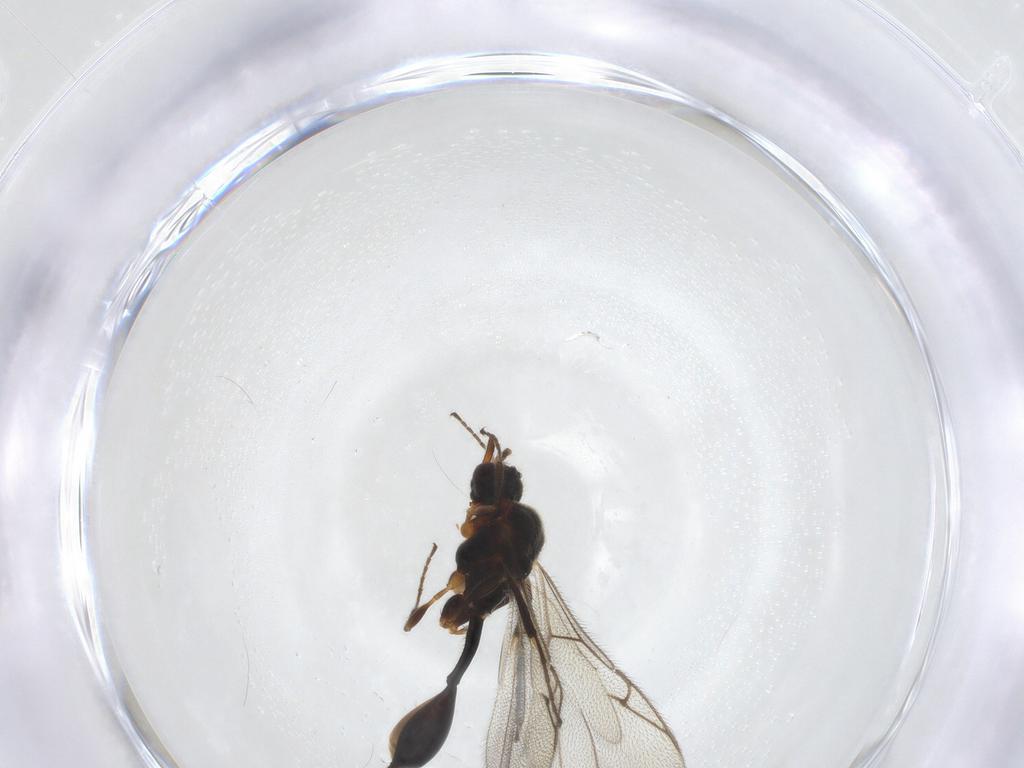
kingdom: Animalia
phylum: Arthropoda
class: Insecta
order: Hymenoptera
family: Diapriidae
